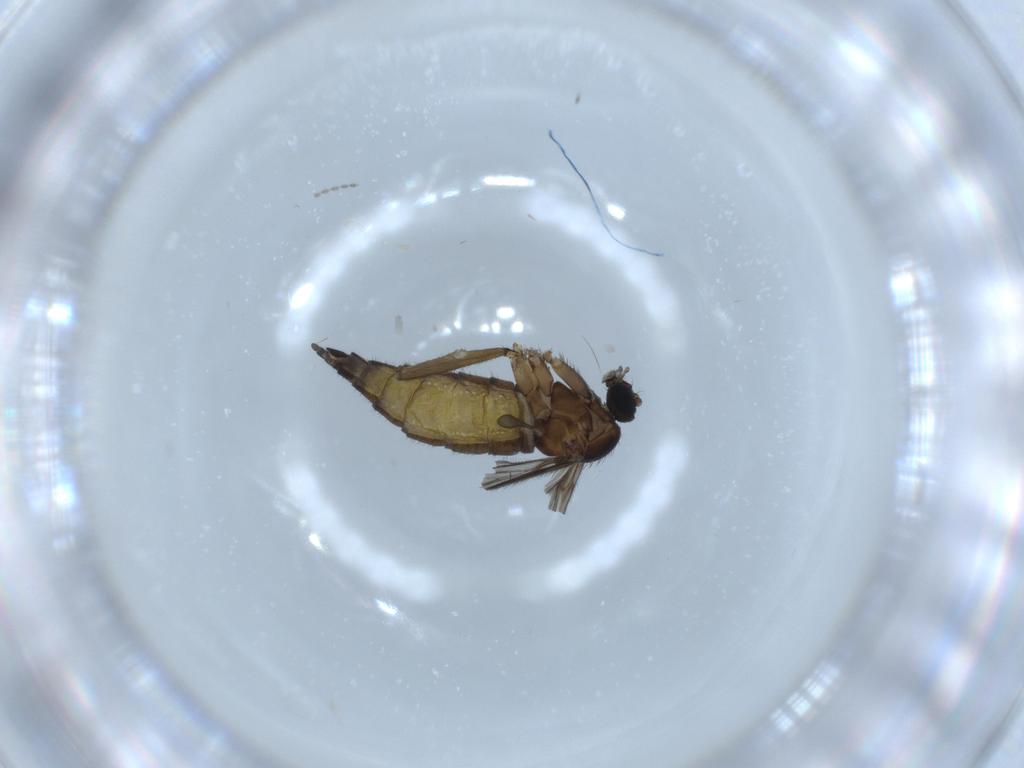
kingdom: Animalia
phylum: Arthropoda
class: Insecta
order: Diptera
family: Sciaridae
